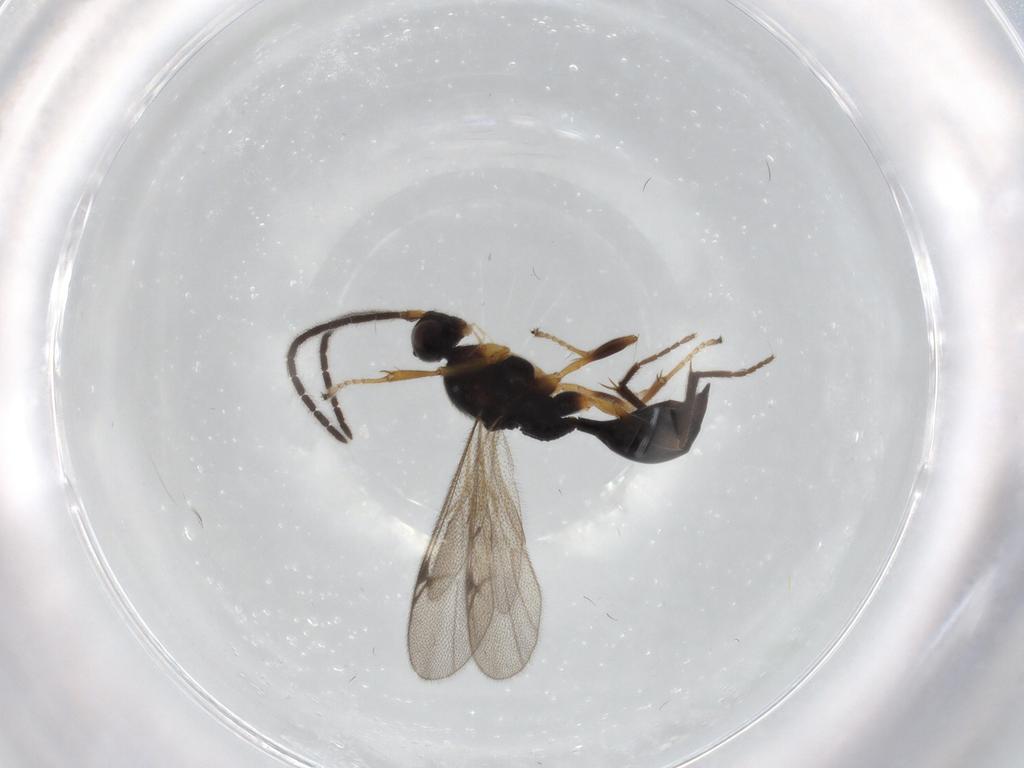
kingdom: Animalia
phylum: Arthropoda
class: Insecta
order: Hymenoptera
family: Proctotrupidae
